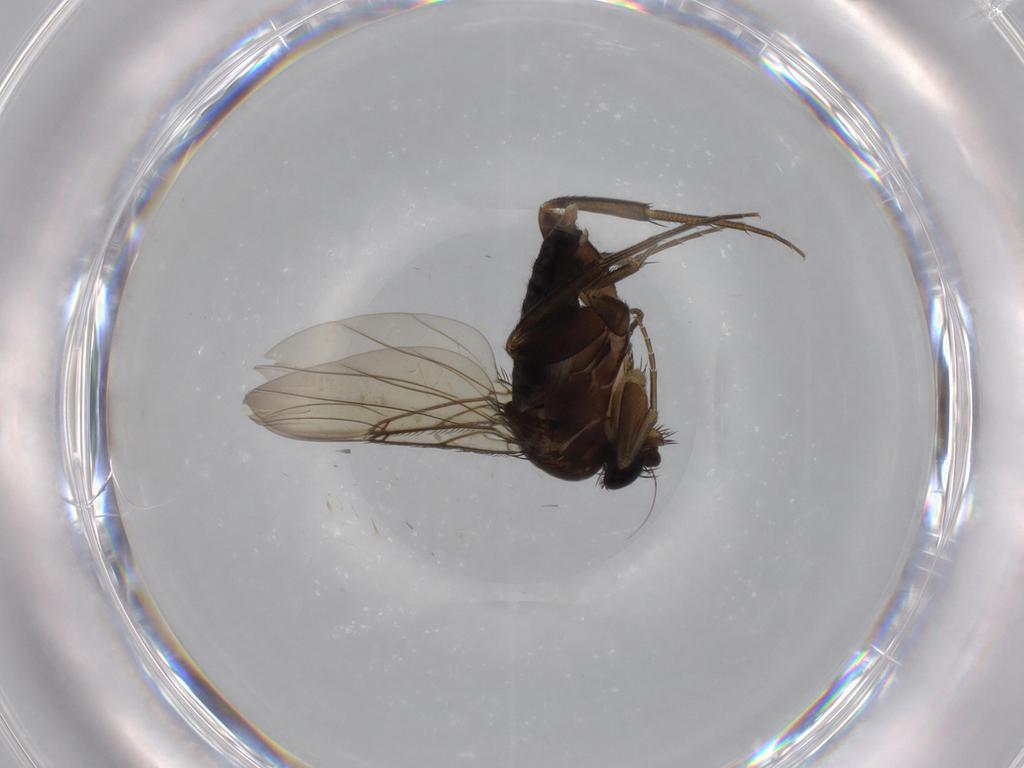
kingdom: Animalia
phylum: Arthropoda
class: Insecta
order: Diptera
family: Phoridae
